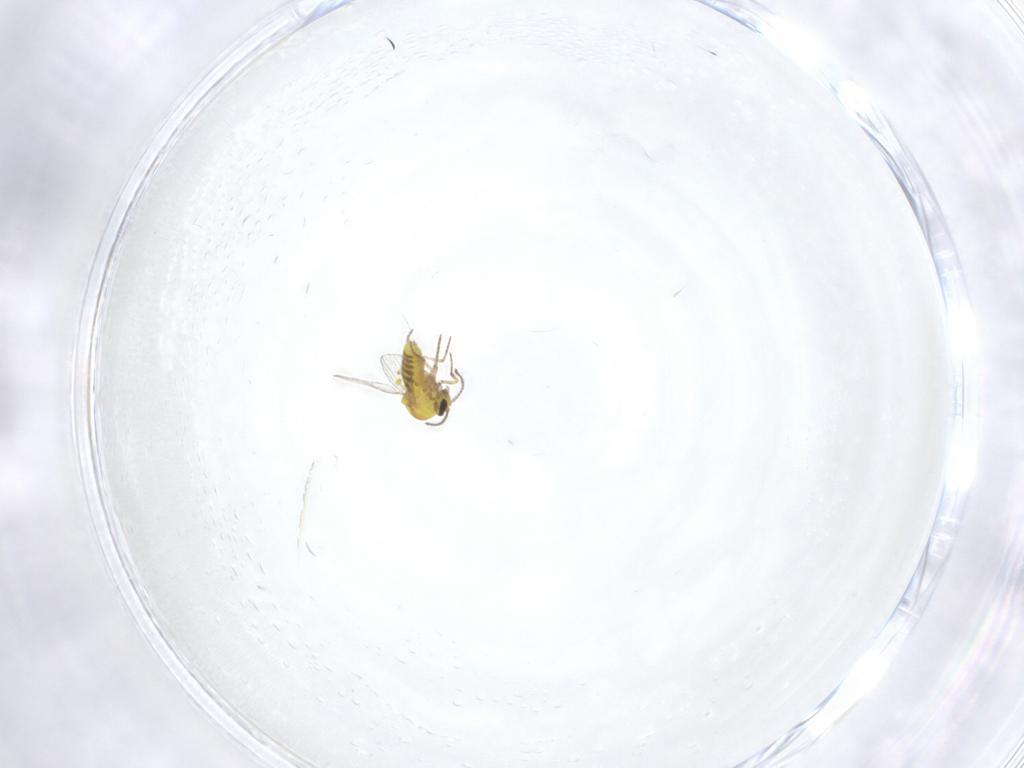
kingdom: Animalia
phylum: Arthropoda
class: Insecta
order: Diptera
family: Ceratopogonidae
